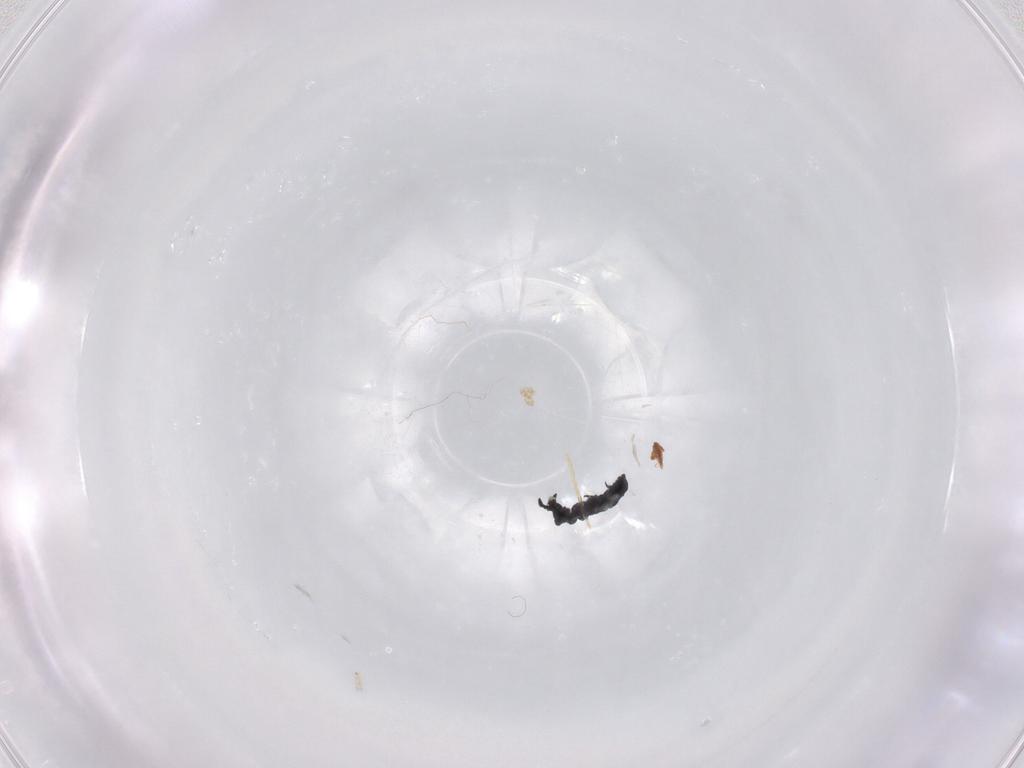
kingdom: Animalia
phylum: Arthropoda
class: Collembola
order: Poduromorpha
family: Hypogastruridae
